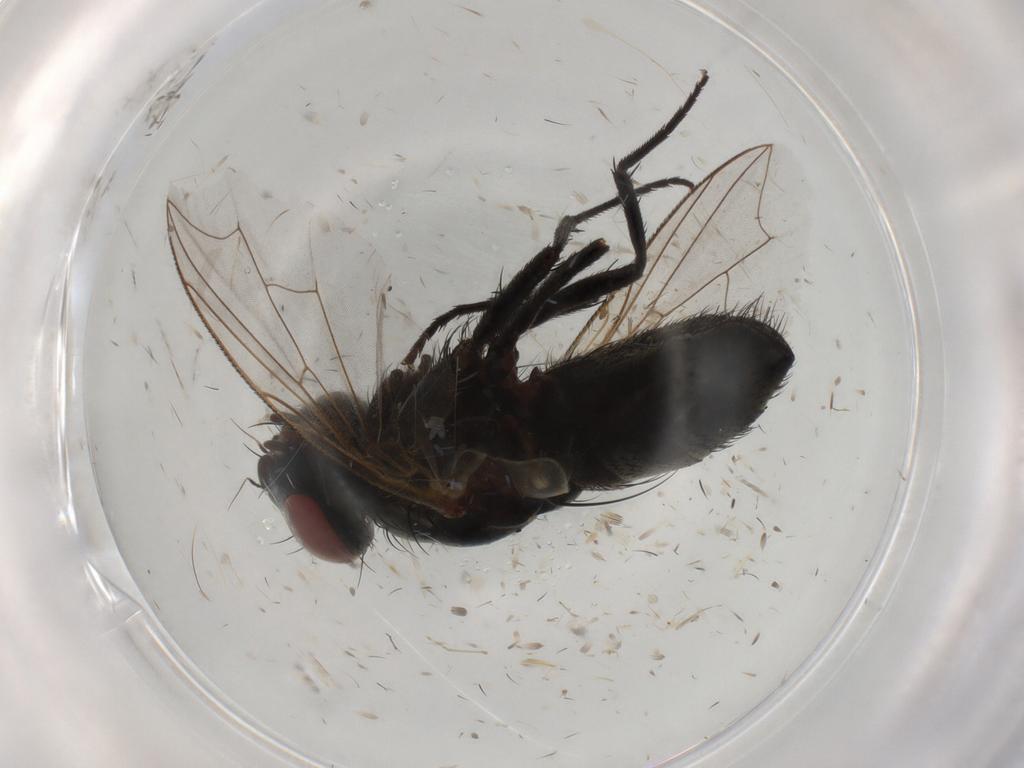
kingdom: Animalia
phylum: Arthropoda
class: Insecta
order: Diptera
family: Sarcophagidae
